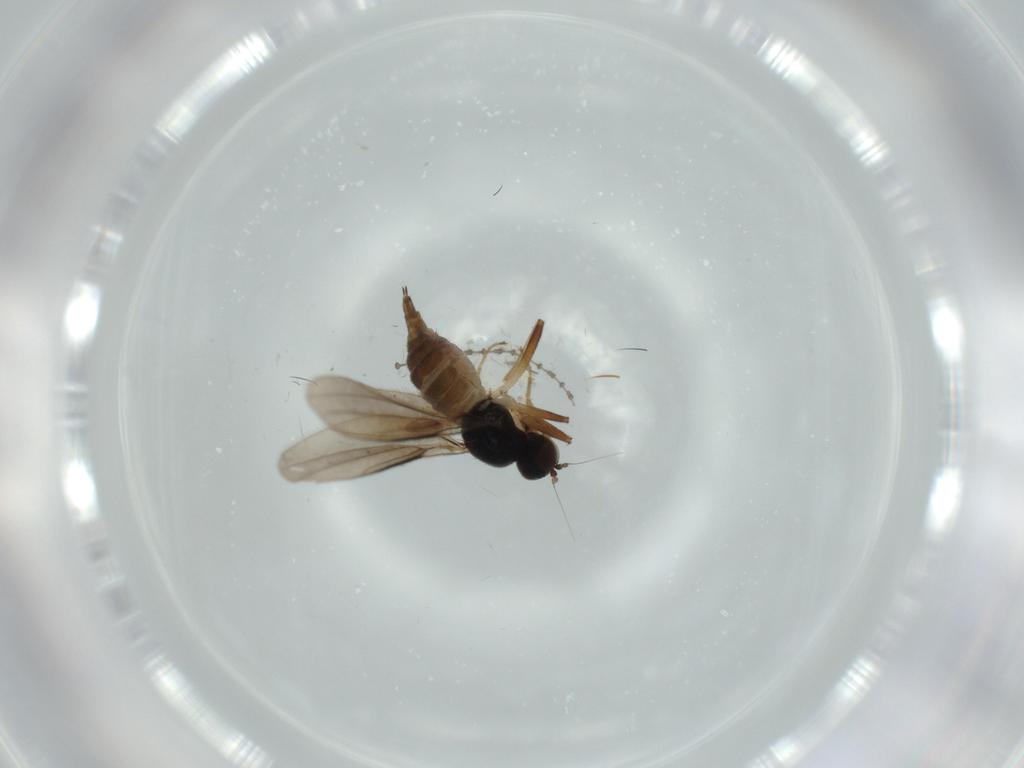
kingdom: Animalia
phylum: Arthropoda
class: Insecta
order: Diptera
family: Hybotidae
